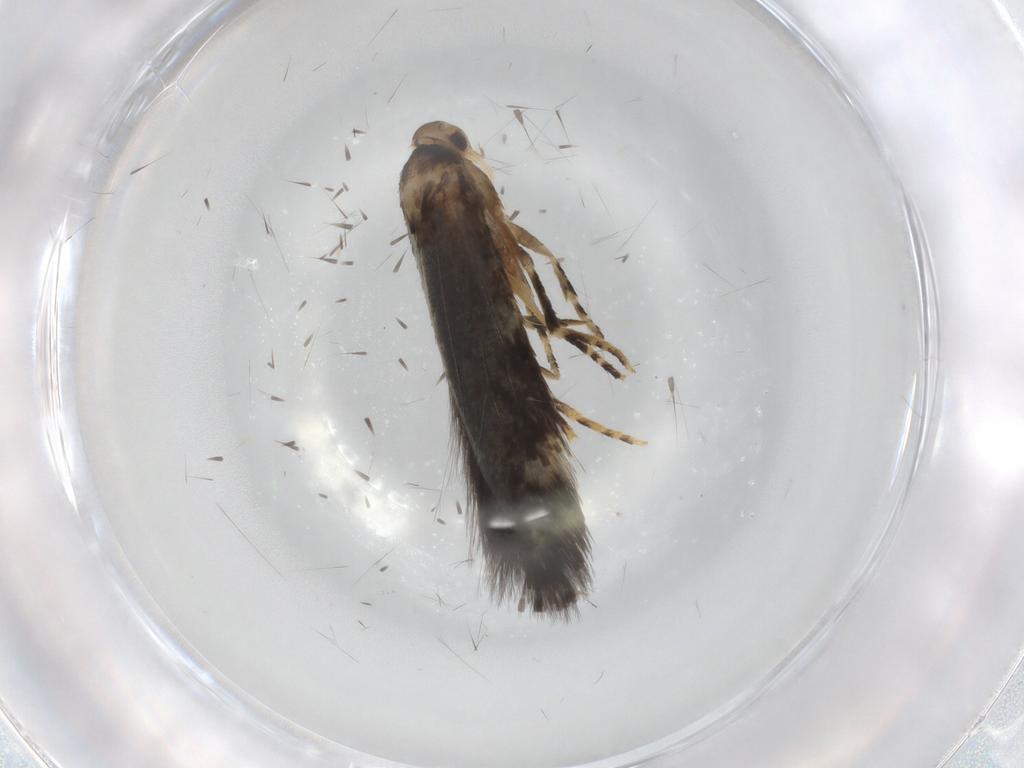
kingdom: Animalia
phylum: Arthropoda
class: Insecta
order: Lepidoptera
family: Elachistidae
